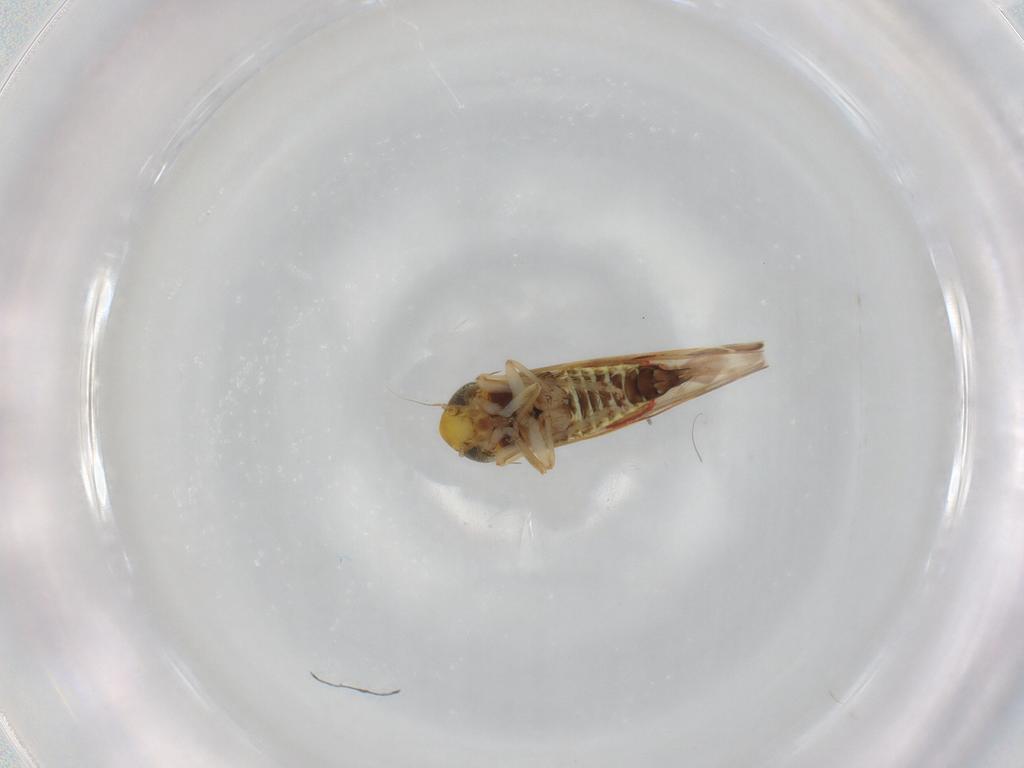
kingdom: Animalia
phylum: Arthropoda
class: Insecta
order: Hemiptera
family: Cicadellidae
